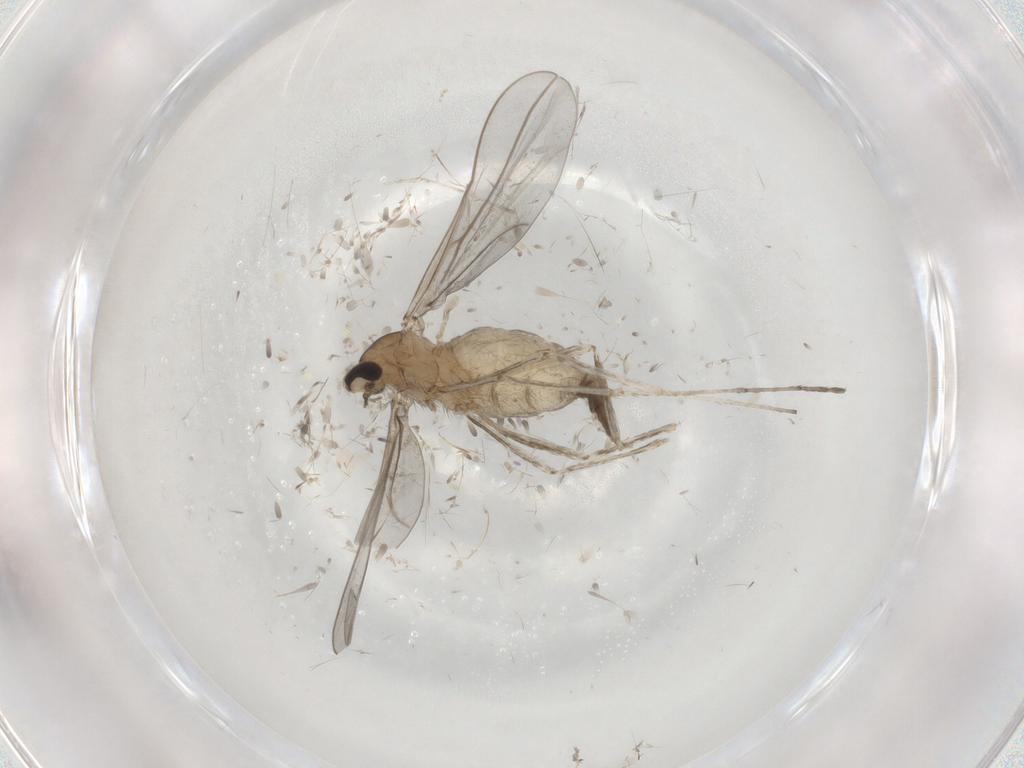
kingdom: Animalia
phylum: Arthropoda
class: Insecta
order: Diptera
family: Cecidomyiidae
